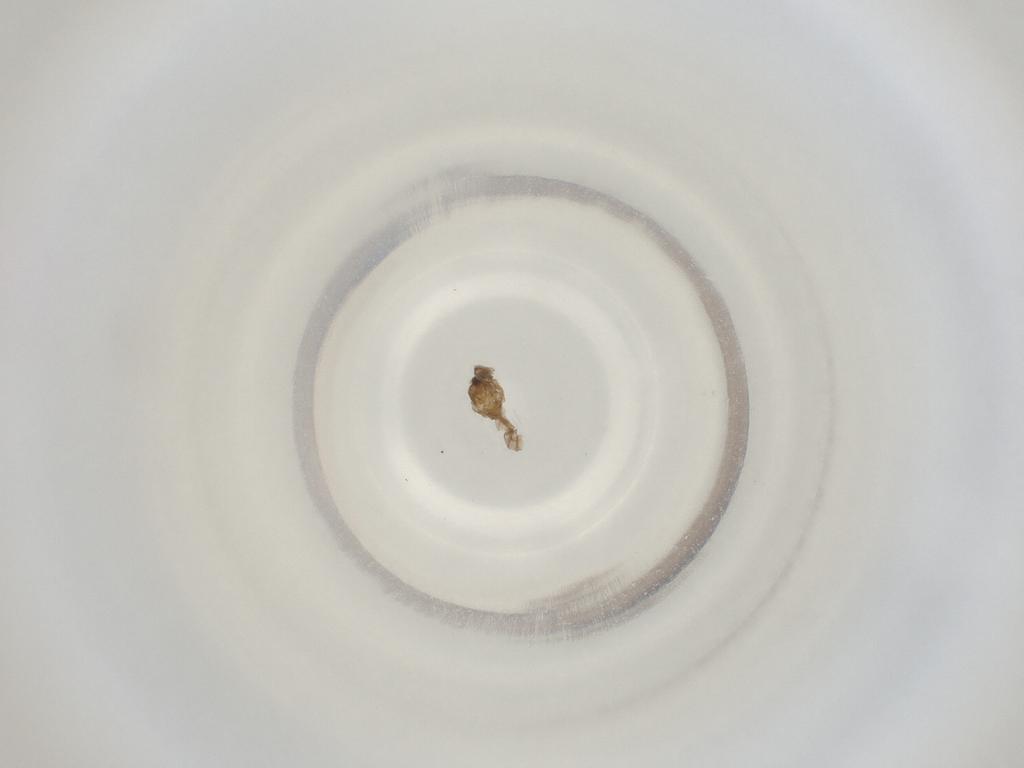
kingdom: Animalia
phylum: Arthropoda
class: Insecta
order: Diptera
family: Cecidomyiidae
